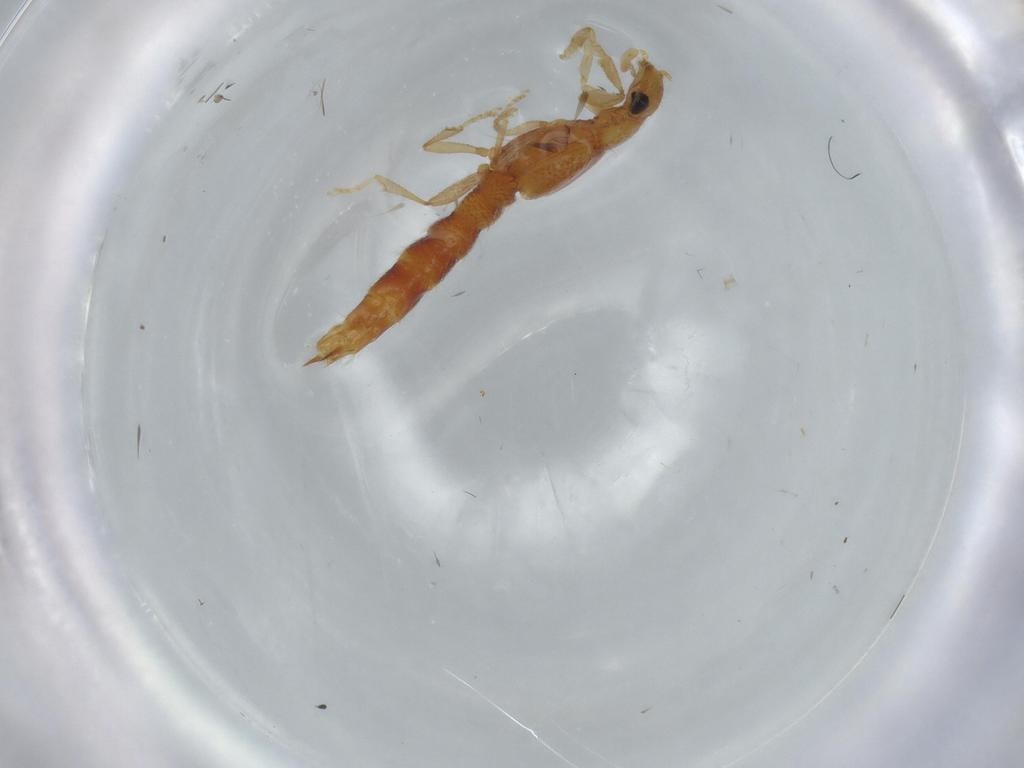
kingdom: Animalia
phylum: Arthropoda
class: Insecta
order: Coleoptera
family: Staphylinidae
